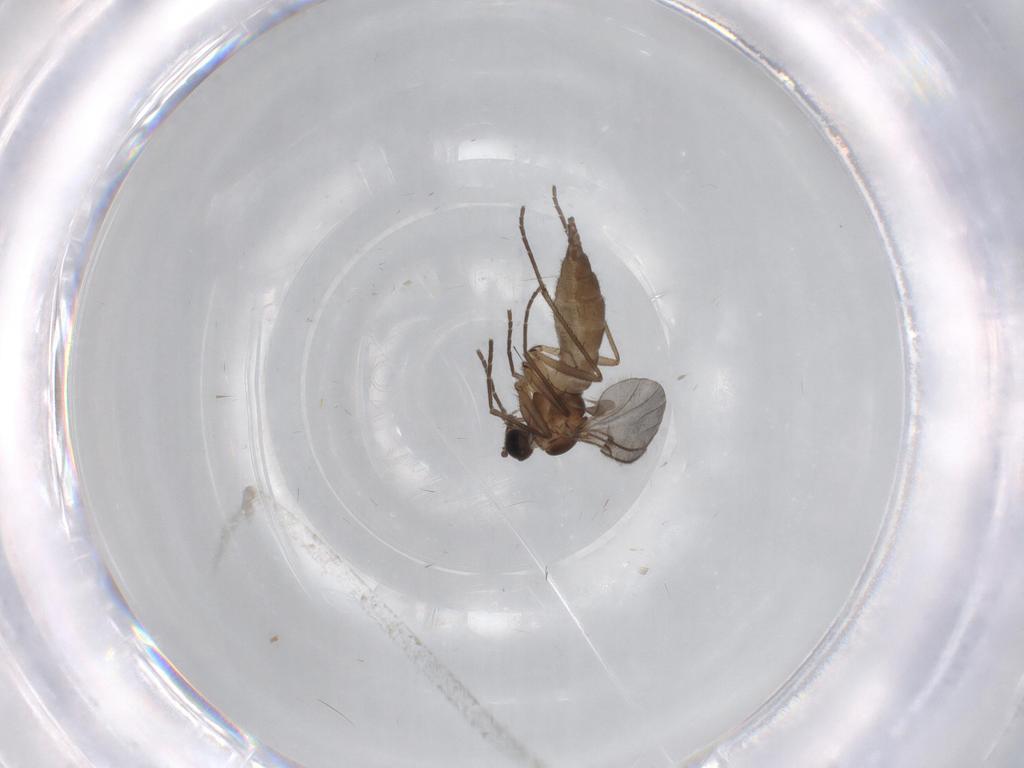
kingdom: Animalia
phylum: Arthropoda
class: Insecta
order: Diptera
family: Sciaridae
